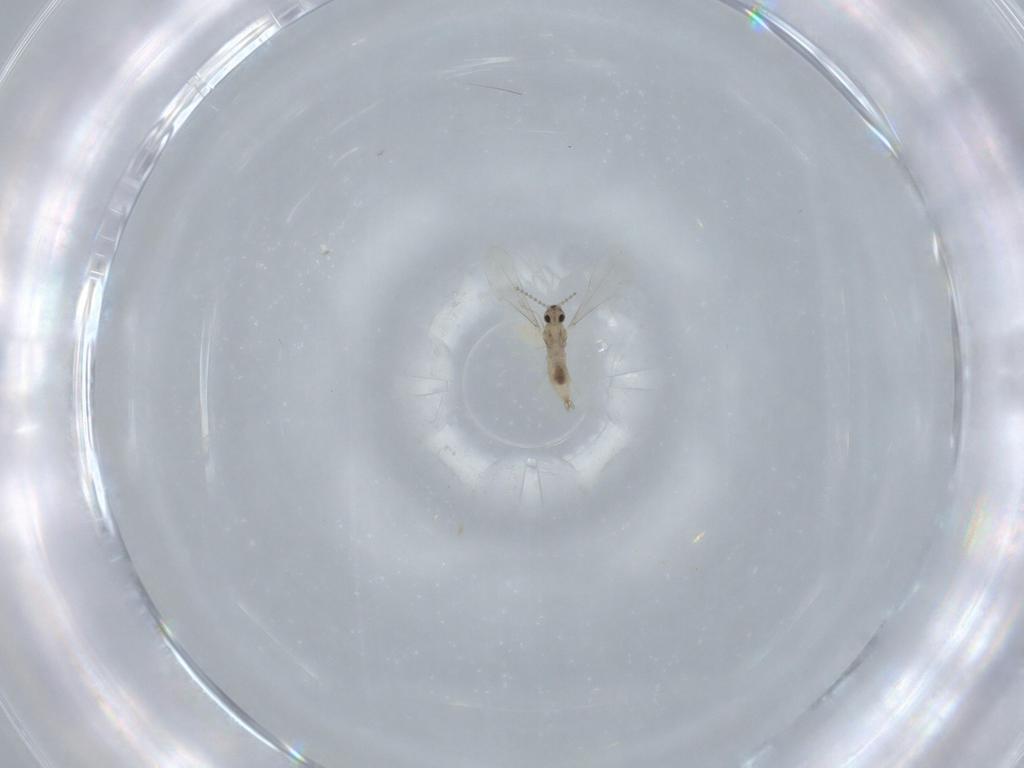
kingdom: Animalia
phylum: Arthropoda
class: Insecta
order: Diptera
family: Cecidomyiidae
